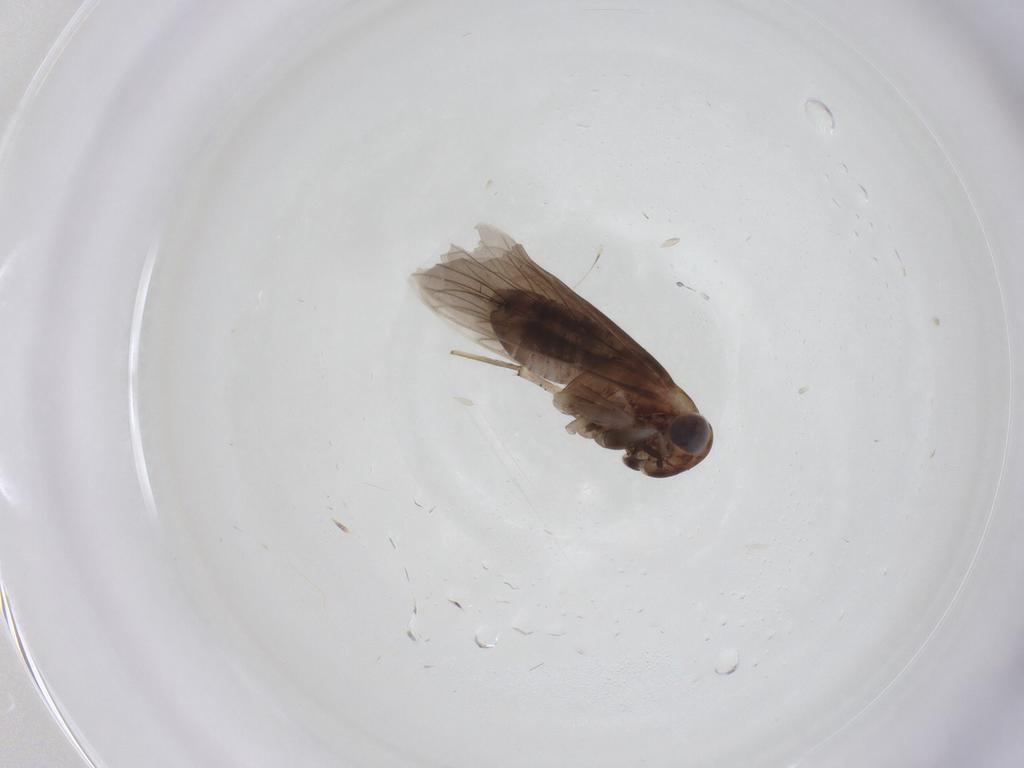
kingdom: Animalia
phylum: Arthropoda
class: Insecta
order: Psocodea
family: Amphientomidae
